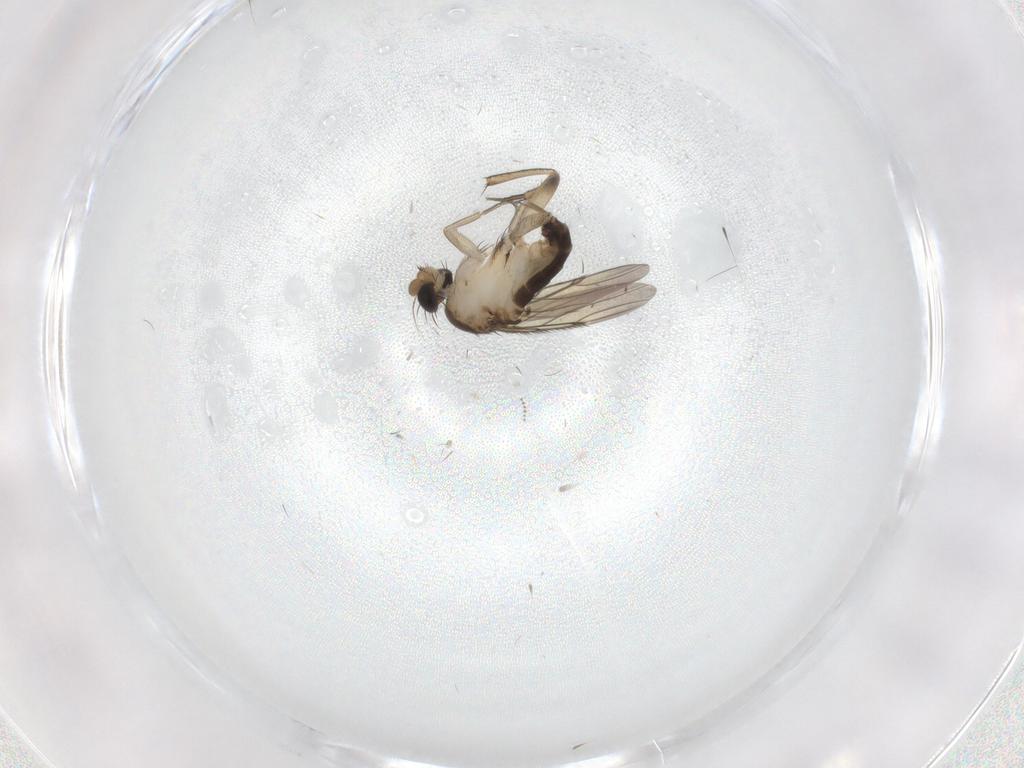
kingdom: Animalia
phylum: Arthropoda
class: Insecta
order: Diptera
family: Phoridae
